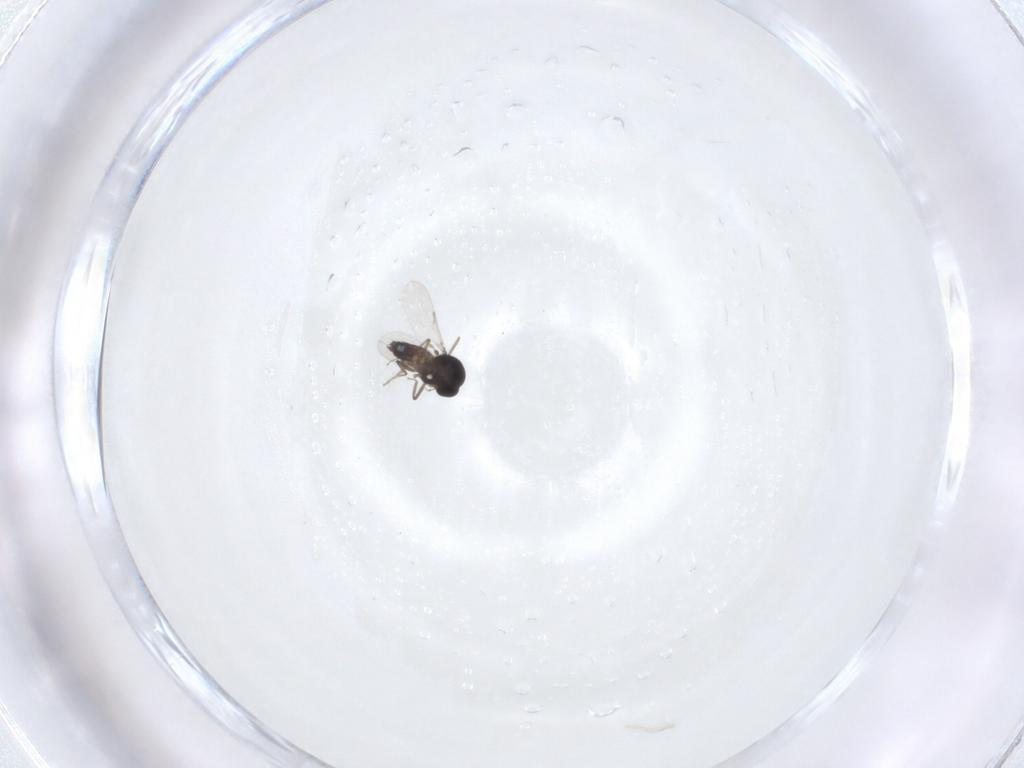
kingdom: Animalia
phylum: Arthropoda
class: Insecta
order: Diptera
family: Ceratopogonidae
